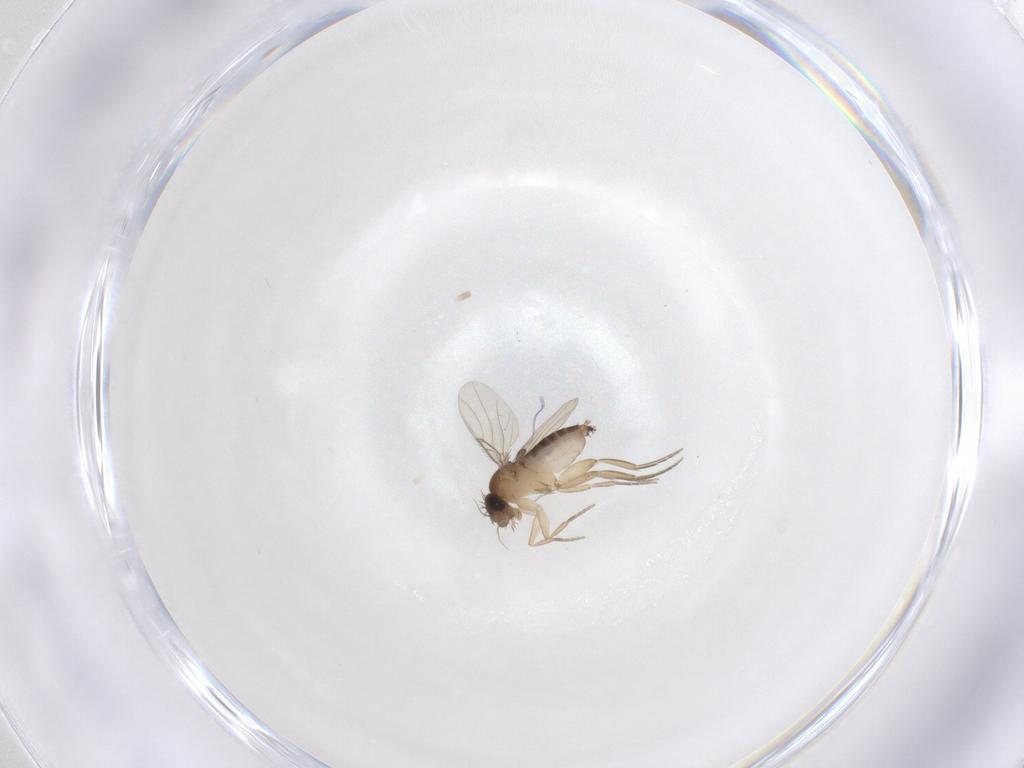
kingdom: Animalia
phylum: Arthropoda
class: Insecta
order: Diptera
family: Phoridae
